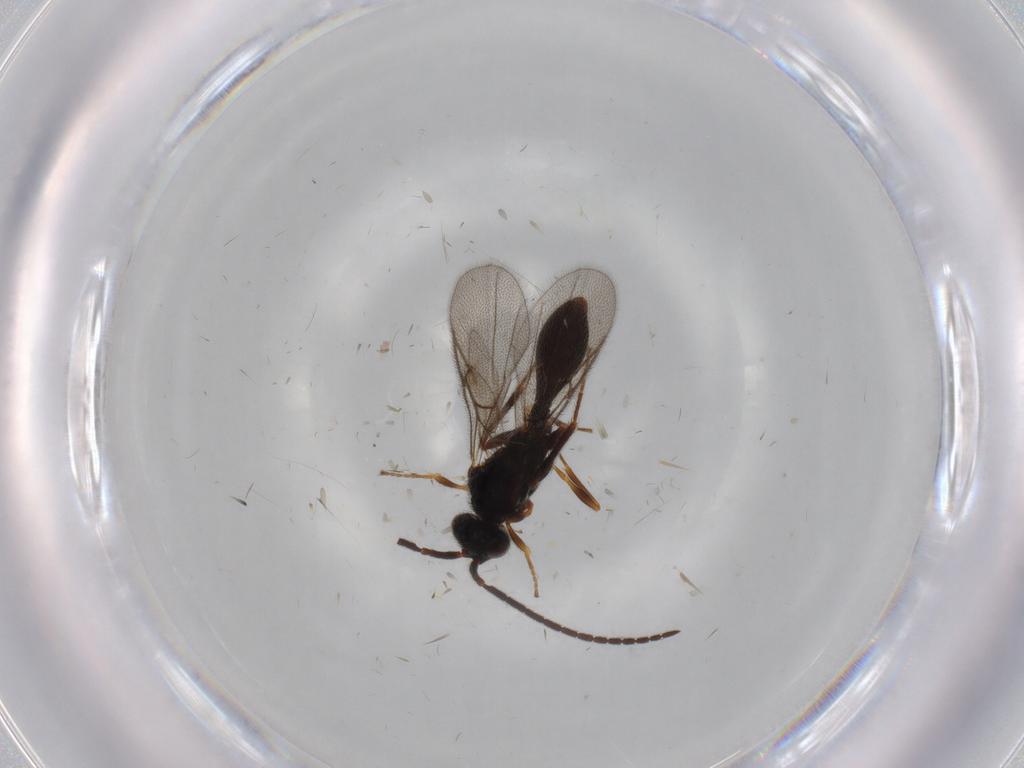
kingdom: Animalia
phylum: Arthropoda
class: Insecta
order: Hymenoptera
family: Diapriidae
